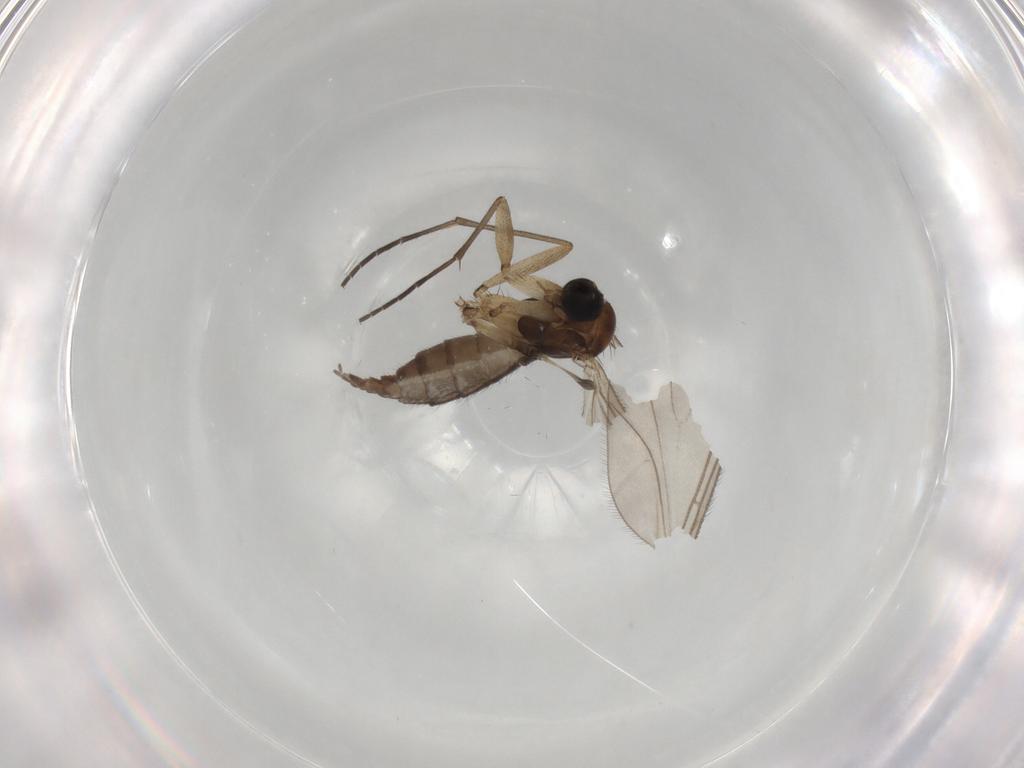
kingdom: Animalia
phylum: Arthropoda
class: Insecta
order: Diptera
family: Sciaridae
